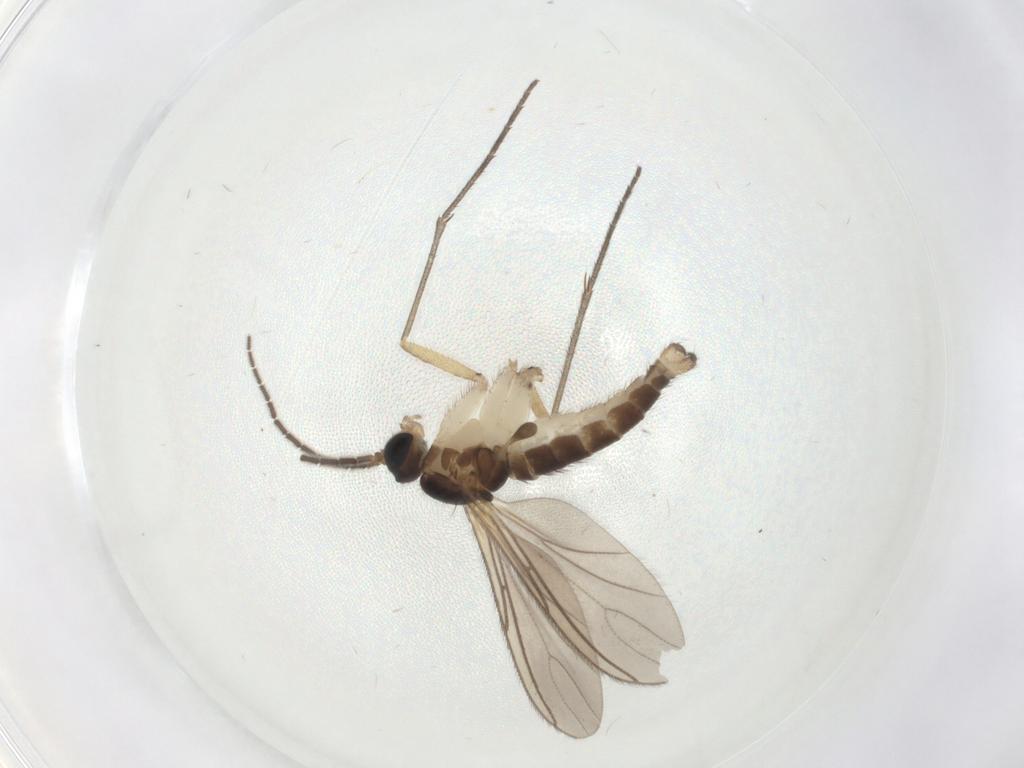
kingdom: Animalia
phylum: Arthropoda
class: Insecta
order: Diptera
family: Sciaridae
